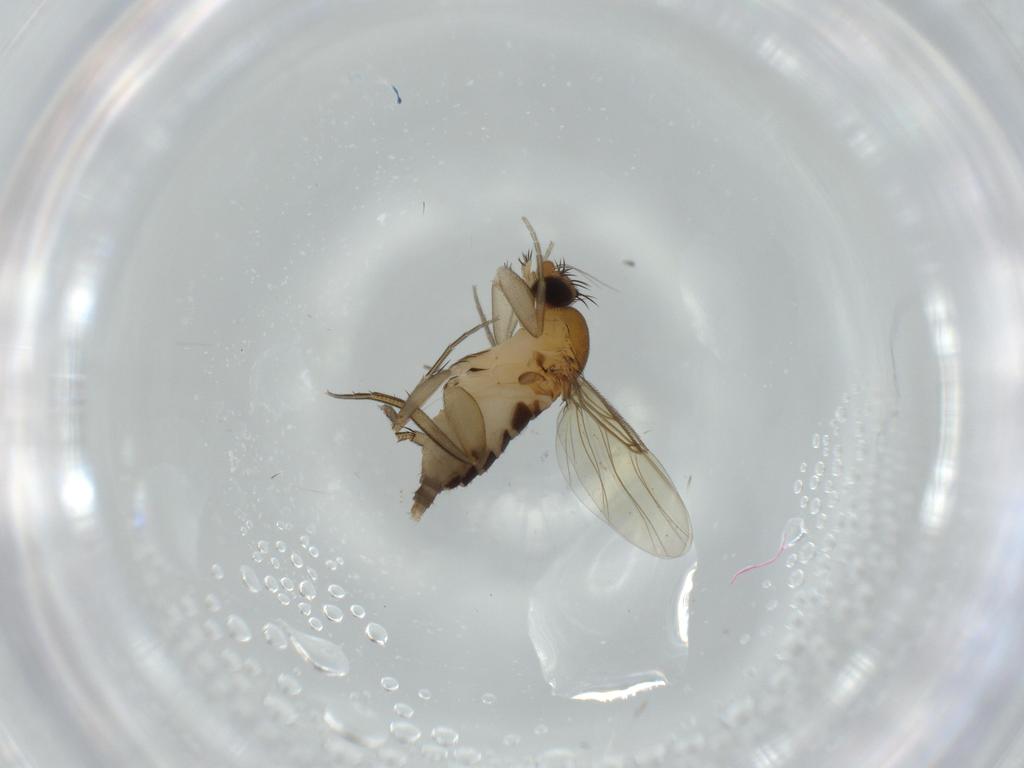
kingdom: Animalia
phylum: Arthropoda
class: Insecta
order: Diptera
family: Phoridae
